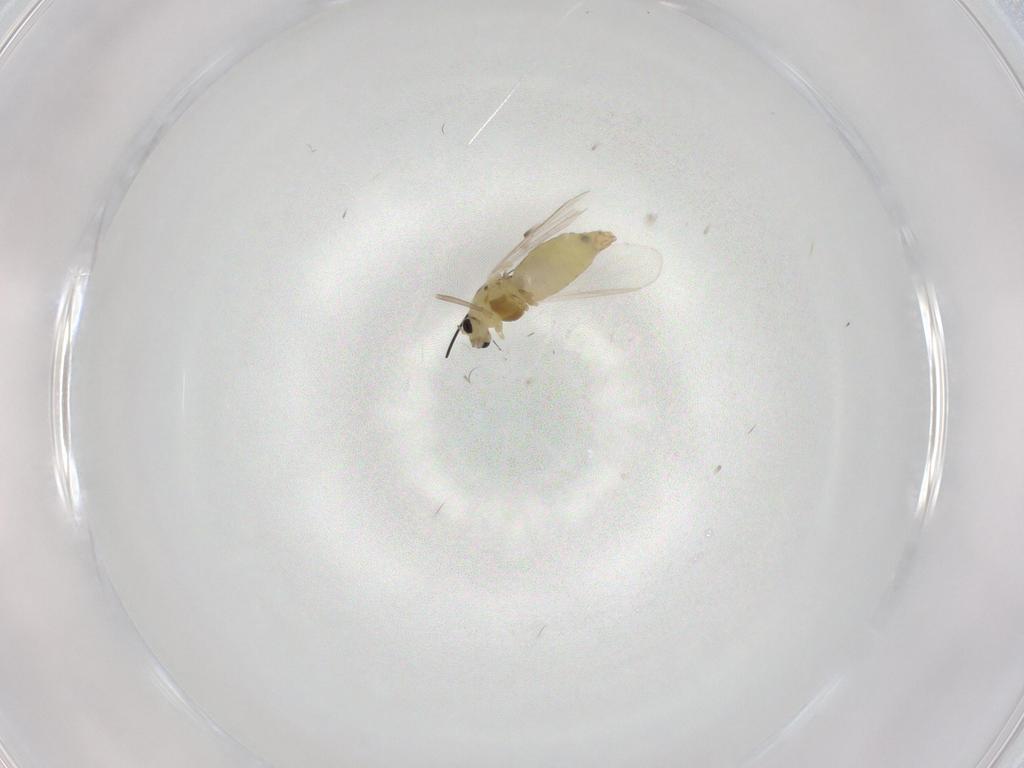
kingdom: Animalia
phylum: Arthropoda
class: Insecta
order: Diptera
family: Chironomidae
